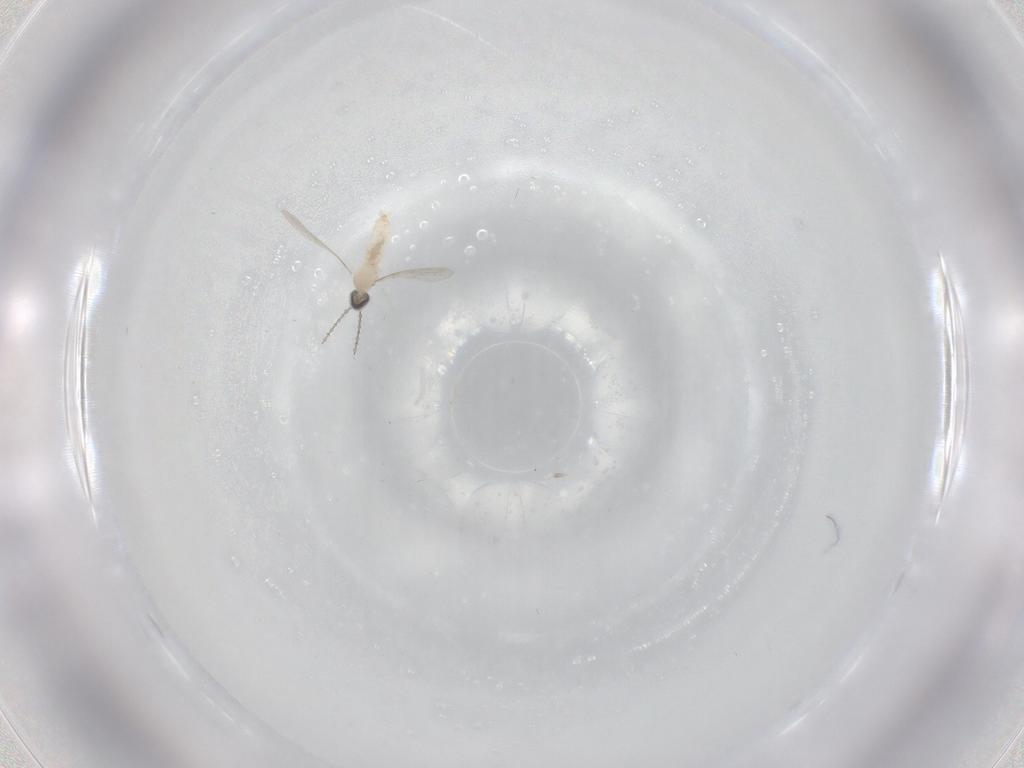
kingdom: Animalia
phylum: Arthropoda
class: Insecta
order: Diptera
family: Cecidomyiidae
